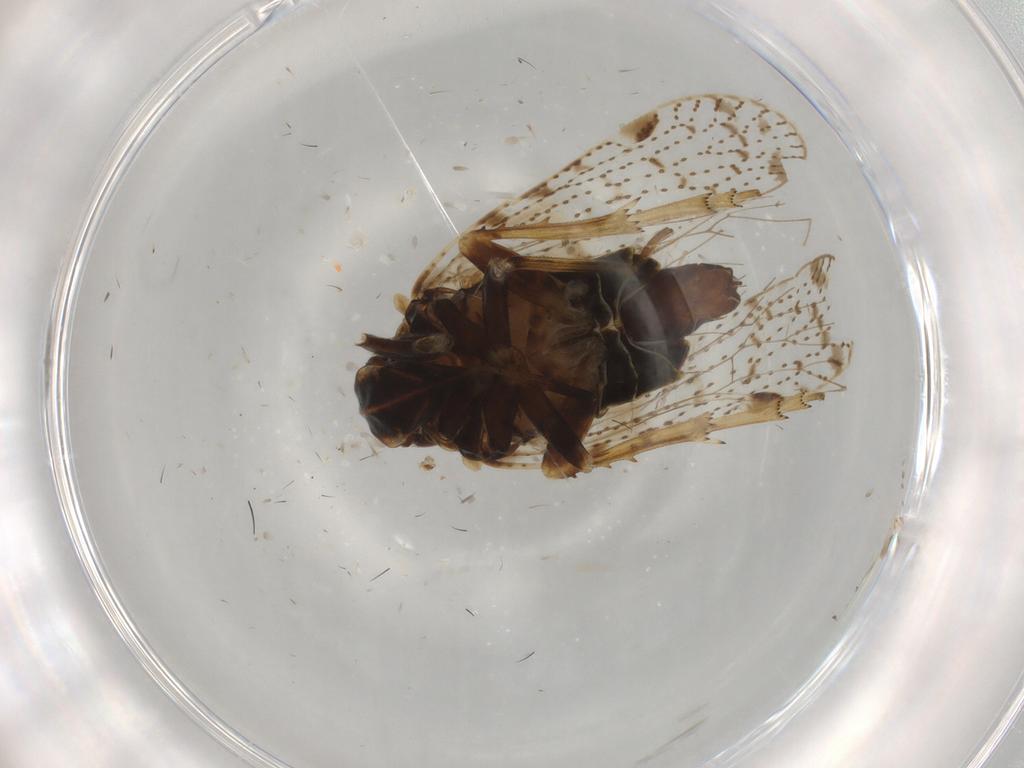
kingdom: Animalia
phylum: Arthropoda
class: Insecta
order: Hemiptera
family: Cixiidae
